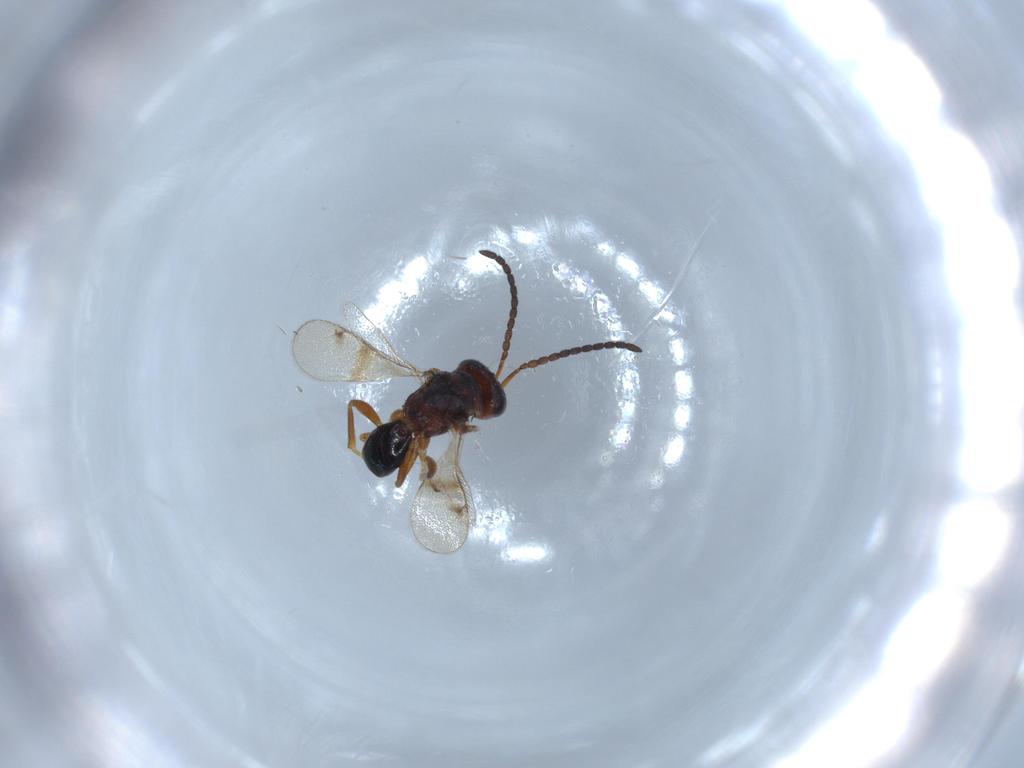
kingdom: Animalia
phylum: Arthropoda
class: Insecta
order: Hymenoptera
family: Diparidae
